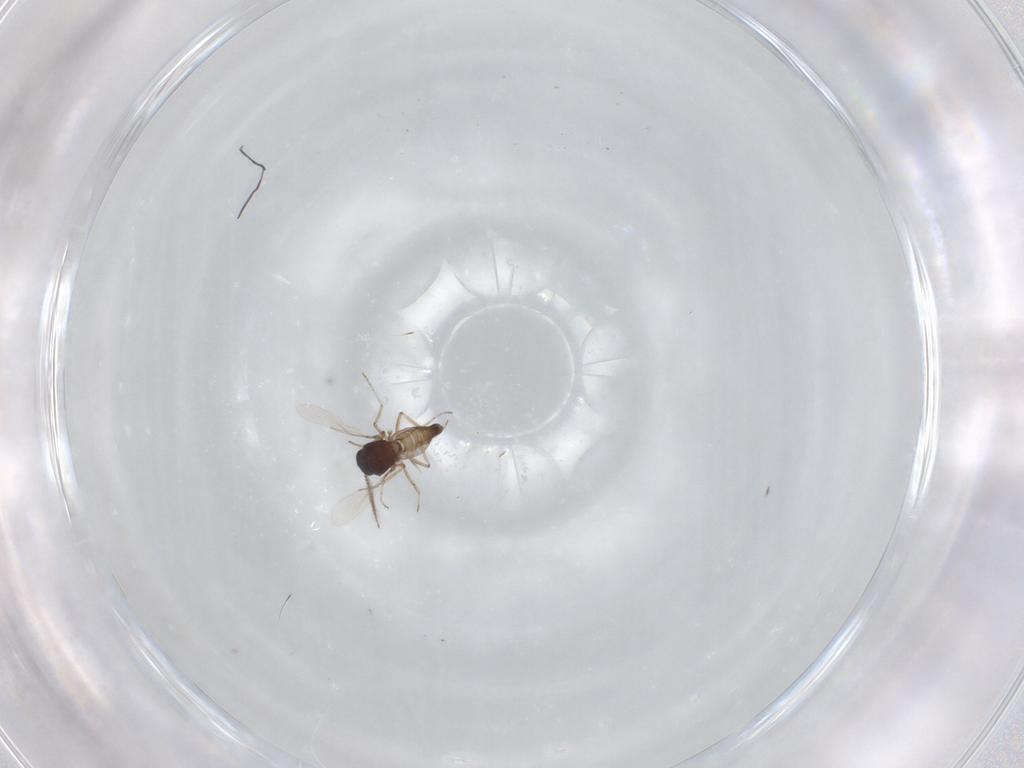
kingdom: Animalia
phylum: Arthropoda
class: Insecta
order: Diptera
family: Ceratopogonidae
